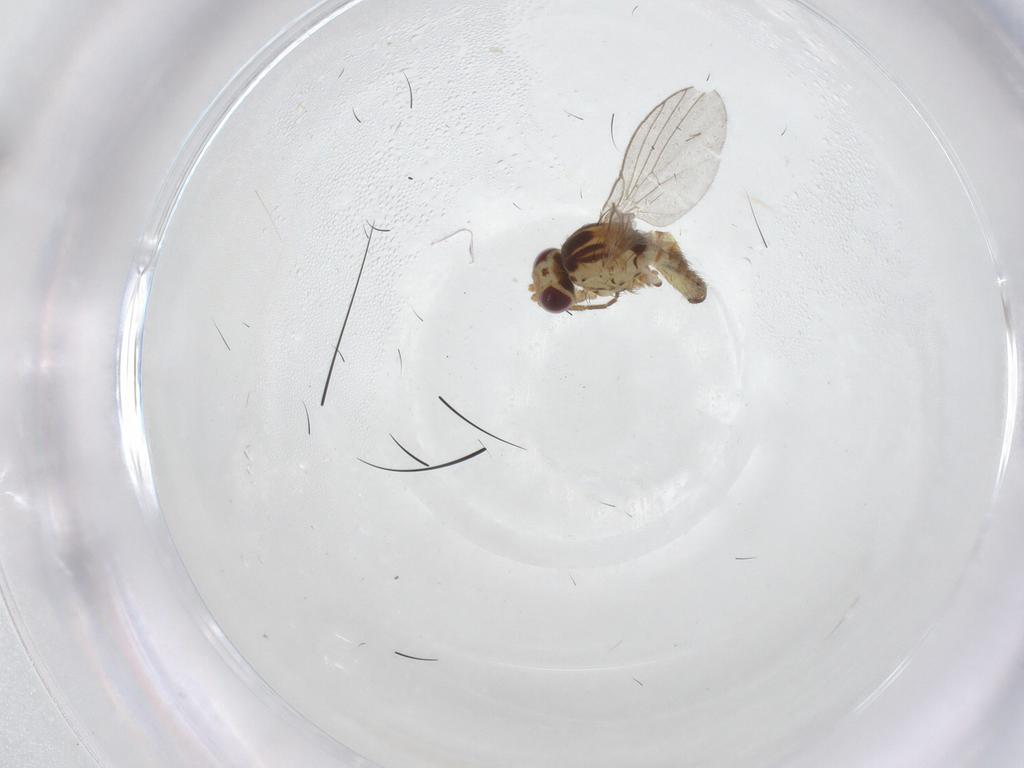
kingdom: Animalia
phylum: Arthropoda
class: Insecta
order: Diptera
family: Agromyzidae
